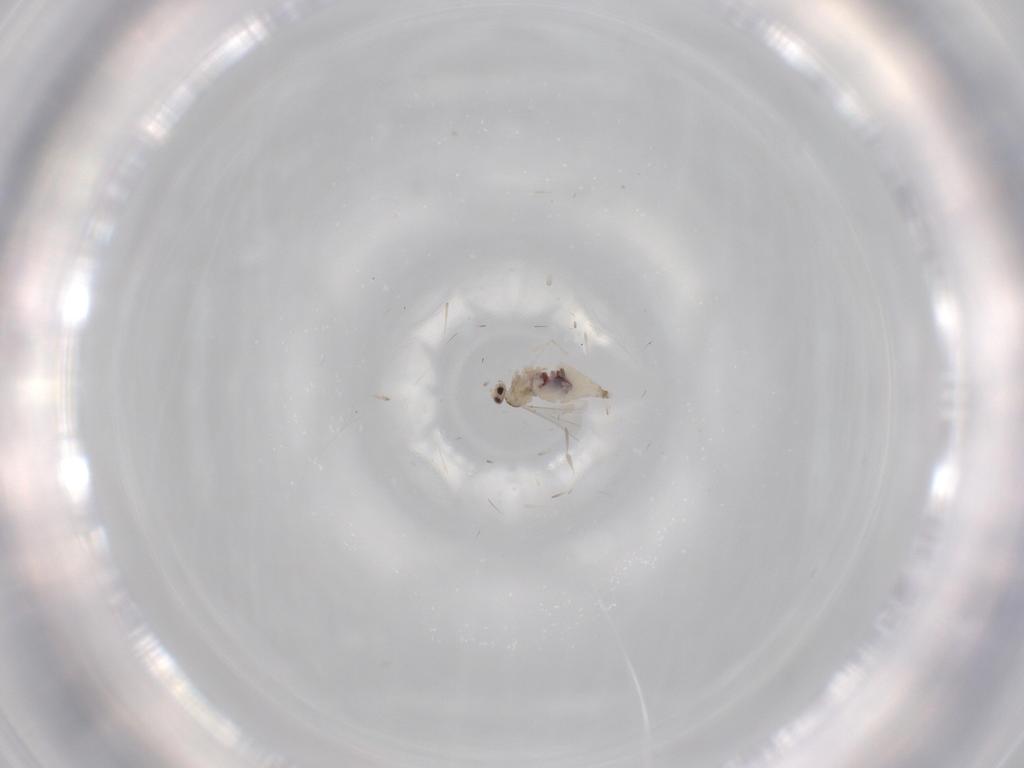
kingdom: Animalia
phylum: Arthropoda
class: Insecta
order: Diptera
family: Cecidomyiidae
